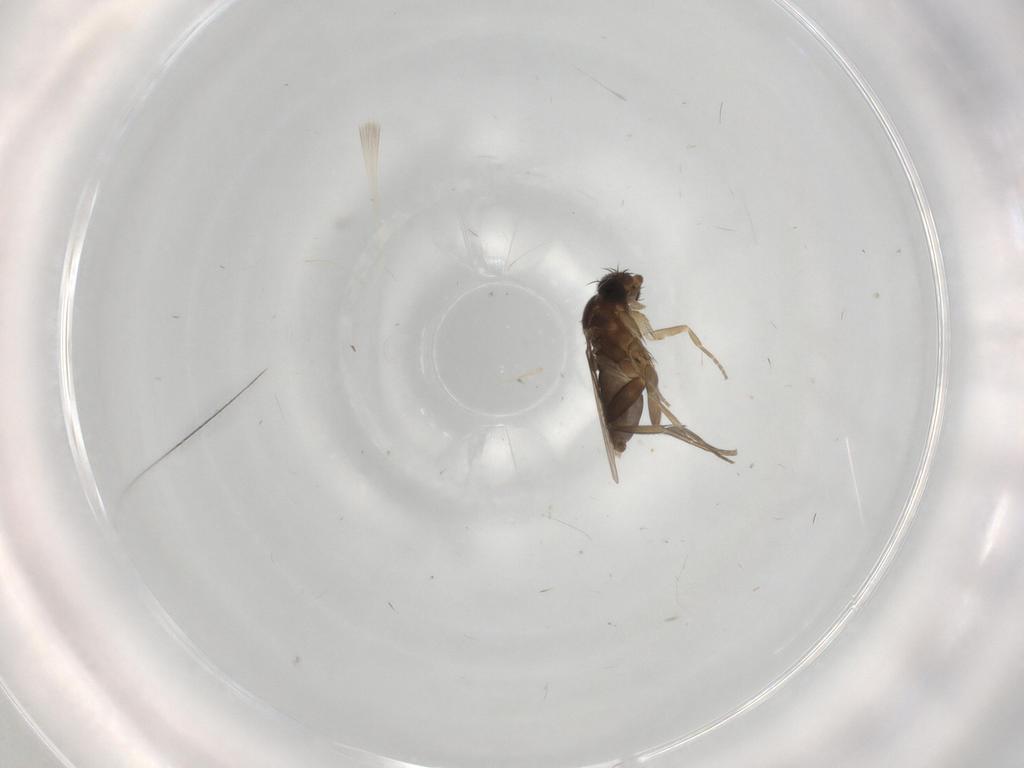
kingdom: Animalia
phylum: Arthropoda
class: Insecta
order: Diptera
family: Phoridae
